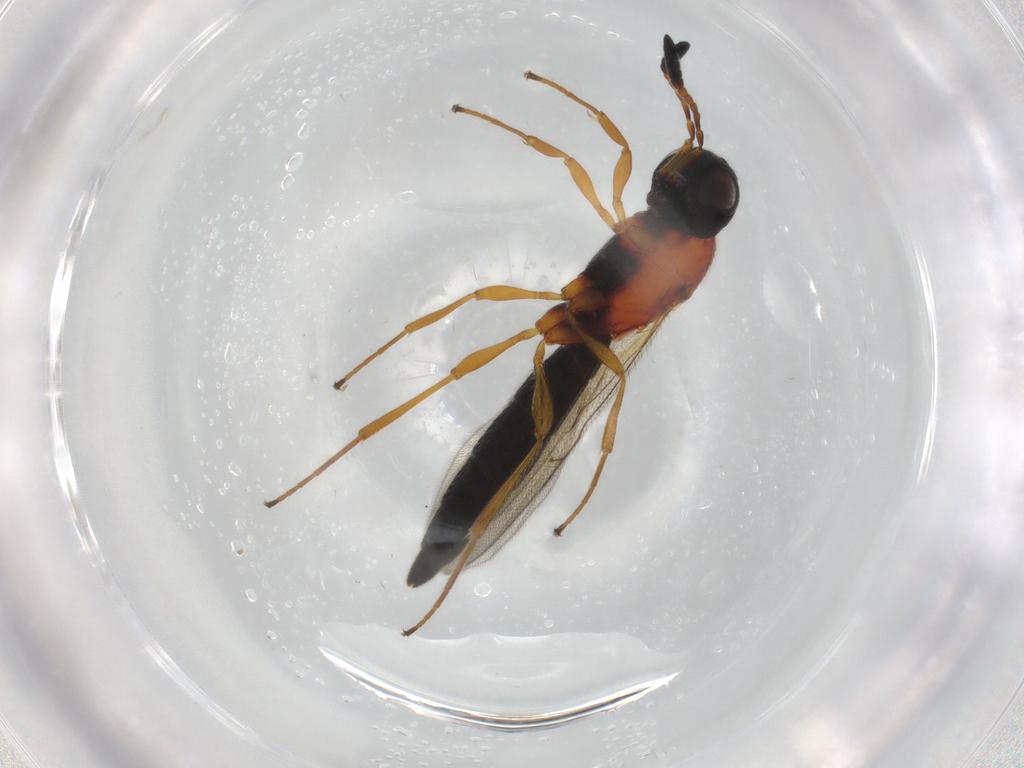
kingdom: Animalia
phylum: Arthropoda
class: Insecta
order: Hymenoptera
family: Scelionidae
